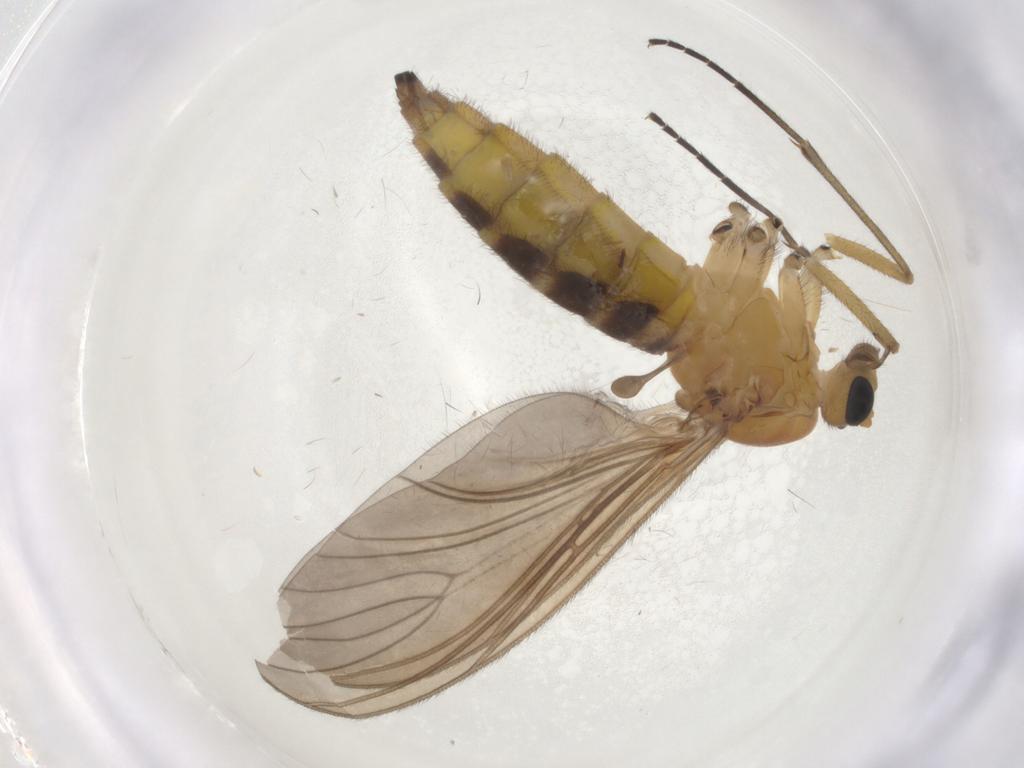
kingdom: Animalia
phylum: Arthropoda
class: Insecta
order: Diptera
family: Sciaridae
